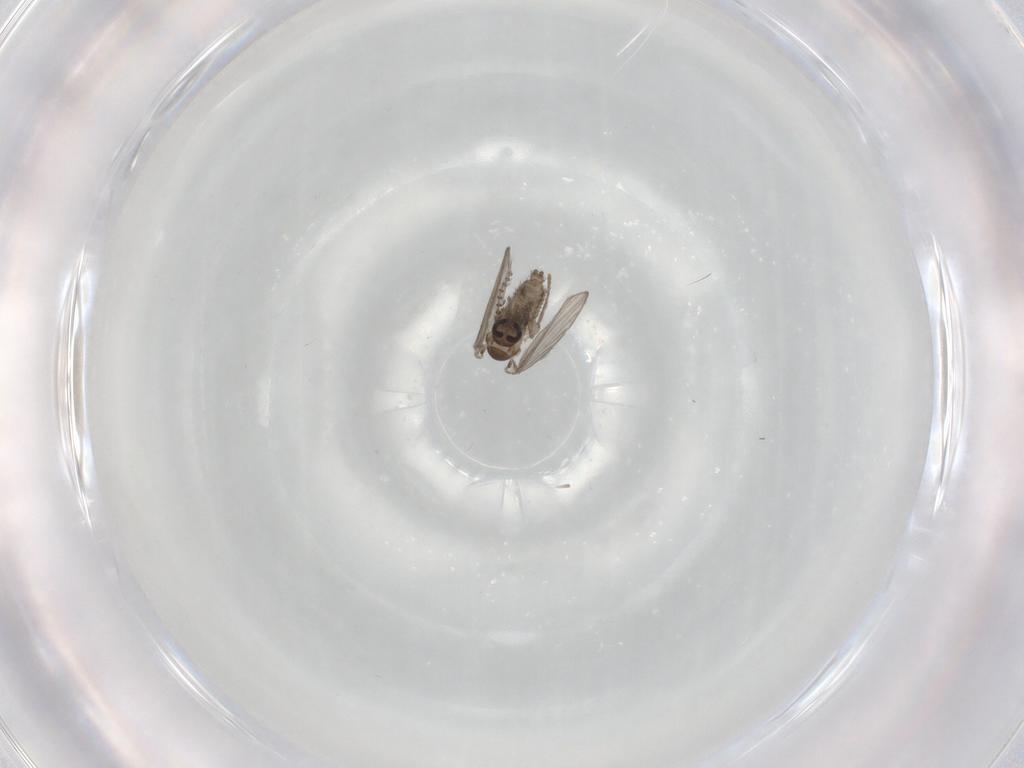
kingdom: Animalia
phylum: Arthropoda
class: Insecta
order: Diptera
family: Psychodidae
